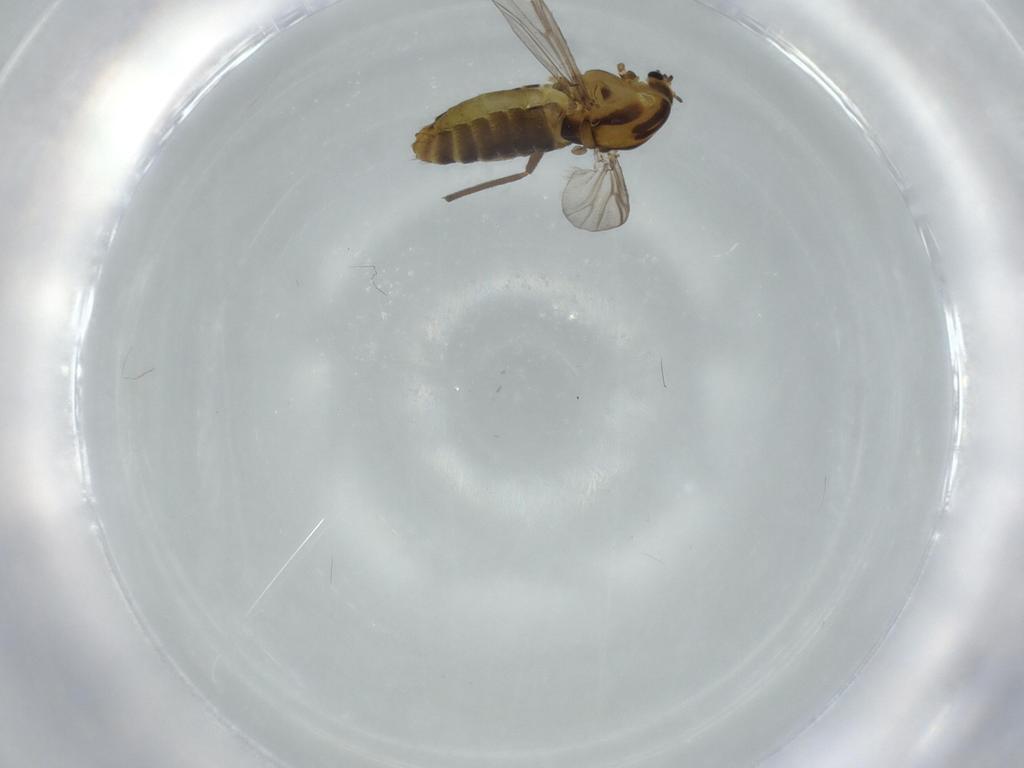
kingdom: Animalia
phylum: Arthropoda
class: Insecta
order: Diptera
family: Chironomidae
